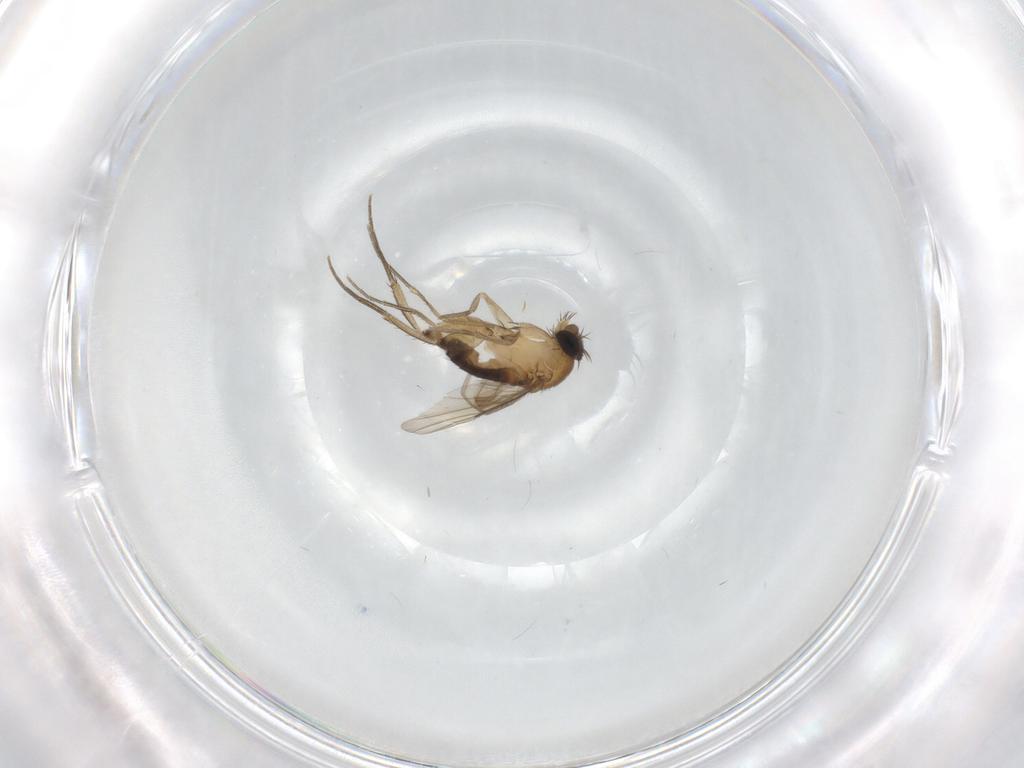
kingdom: Animalia
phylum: Arthropoda
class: Insecta
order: Diptera
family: Phoridae
